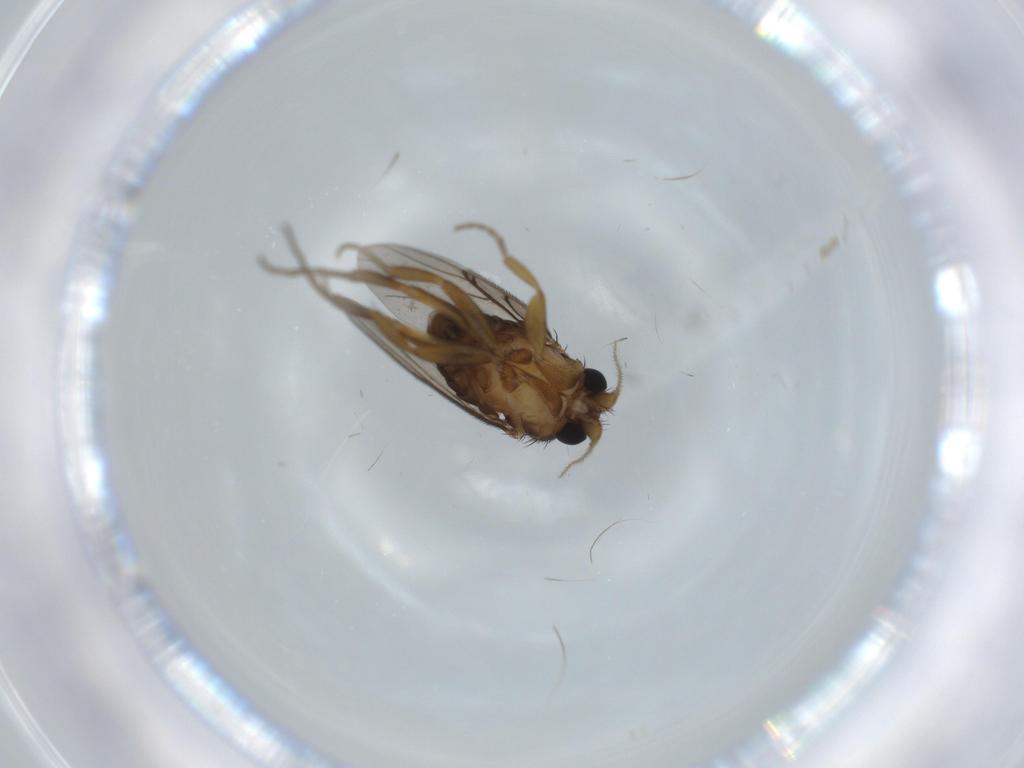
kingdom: Animalia
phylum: Arthropoda
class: Insecta
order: Diptera
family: Phoridae
